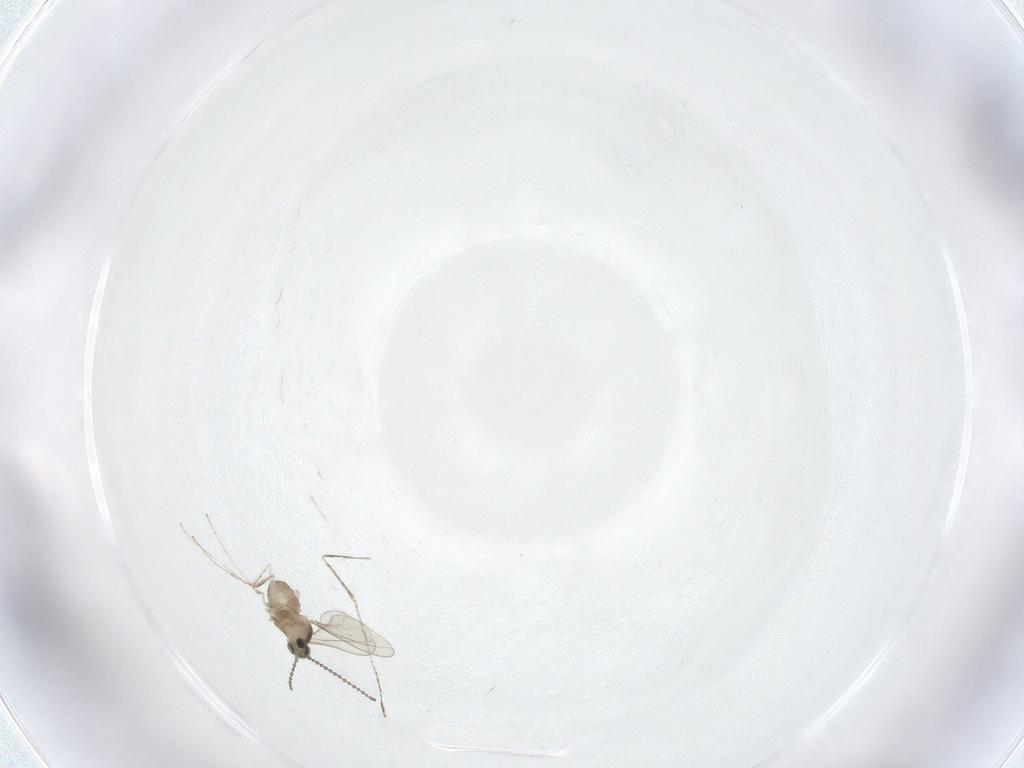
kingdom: Animalia
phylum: Arthropoda
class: Insecta
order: Diptera
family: Cecidomyiidae
